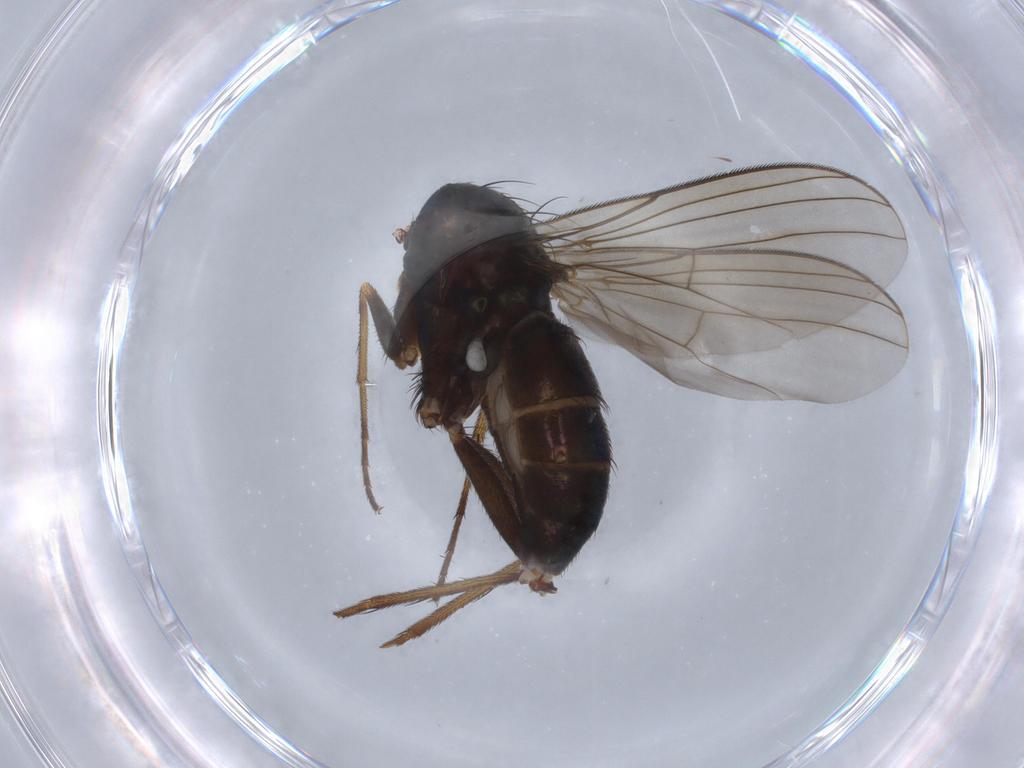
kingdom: Animalia
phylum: Arthropoda
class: Insecta
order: Diptera
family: Dolichopodidae
